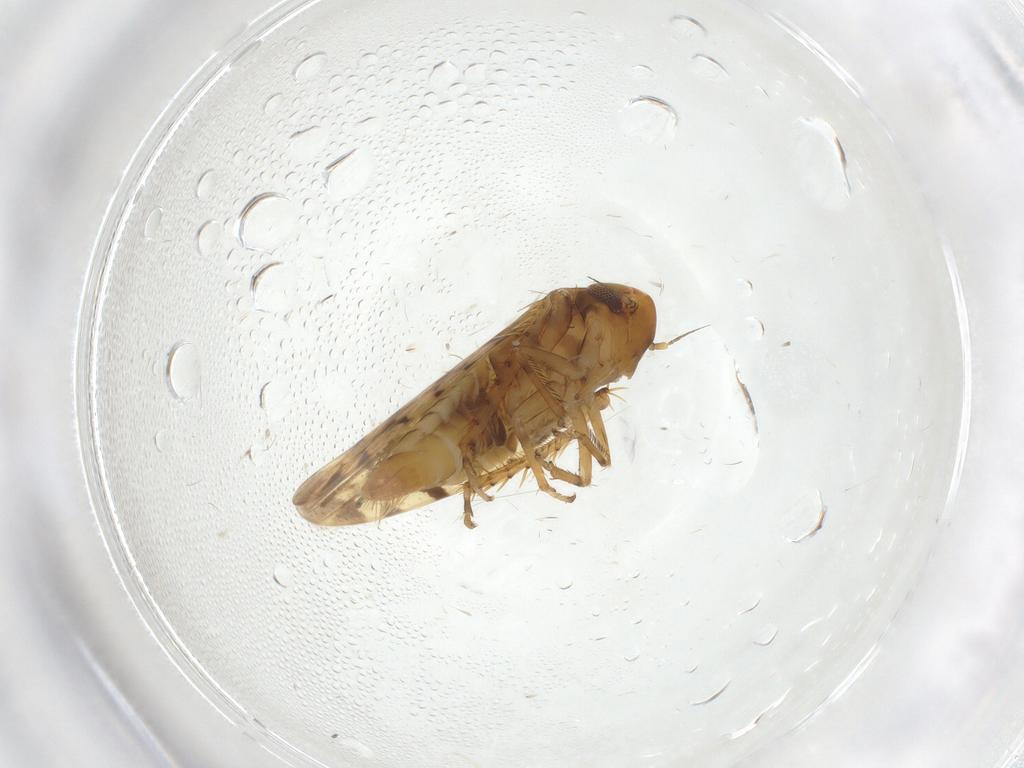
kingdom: Animalia
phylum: Arthropoda
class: Insecta
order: Hemiptera
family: Cicadellidae
